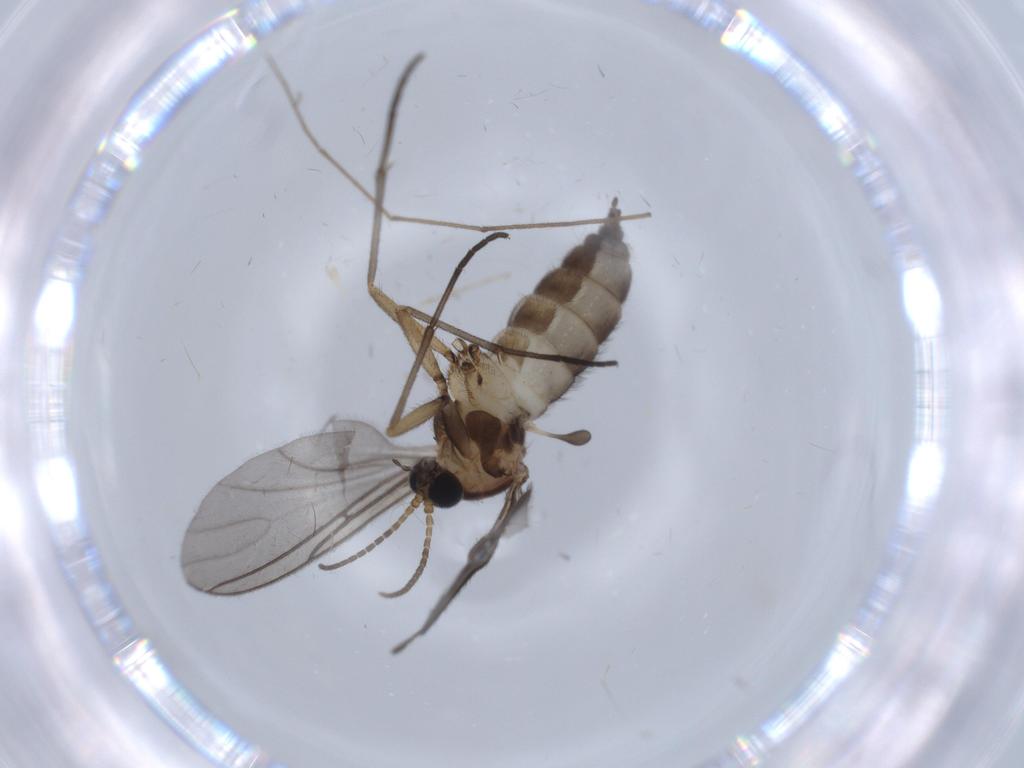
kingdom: Animalia
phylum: Arthropoda
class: Insecta
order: Diptera
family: Sciaridae
